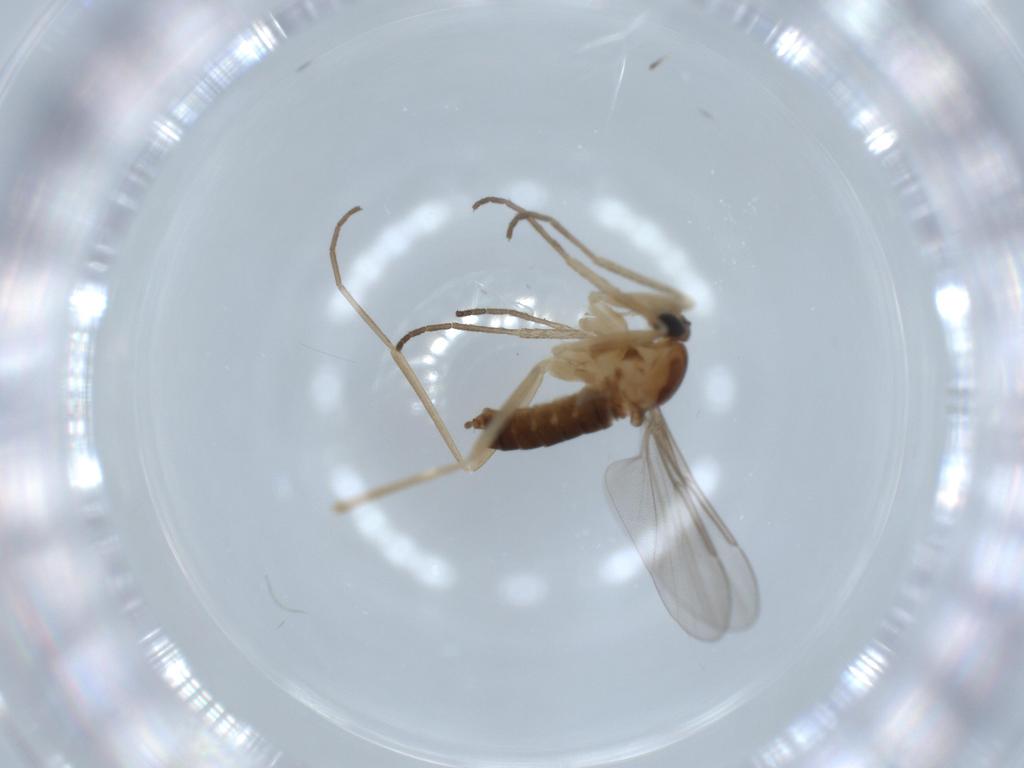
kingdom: Animalia
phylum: Arthropoda
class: Insecta
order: Diptera
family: Cecidomyiidae
